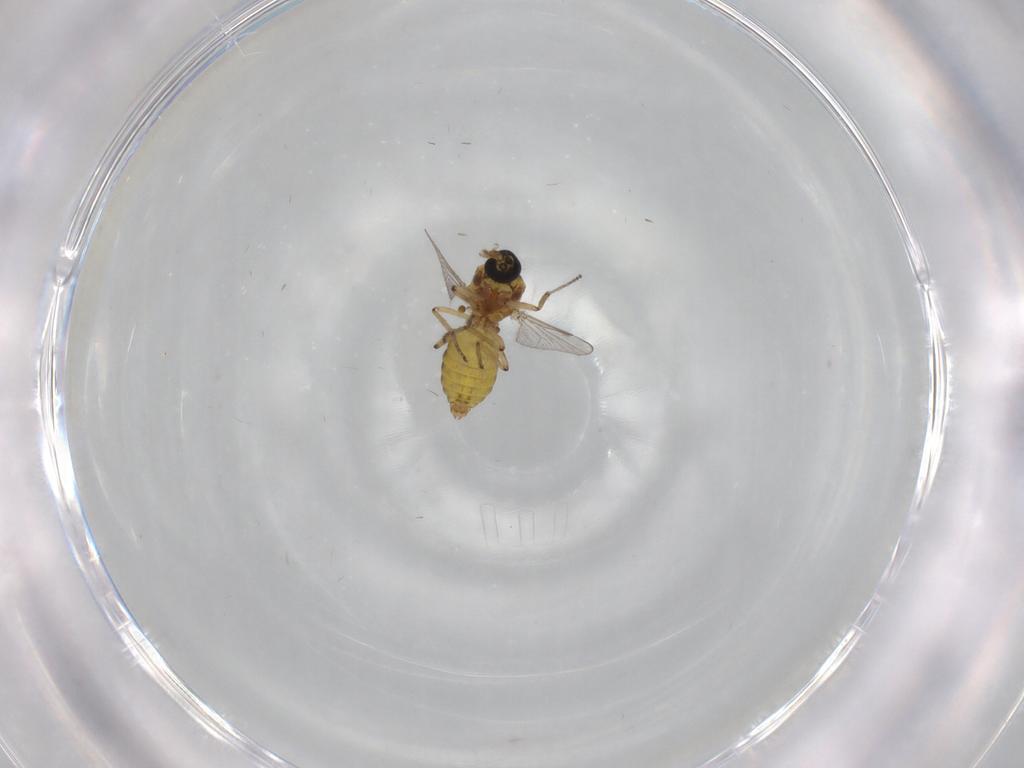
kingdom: Animalia
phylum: Arthropoda
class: Insecta
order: Diptera
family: Ceratopogonidae
